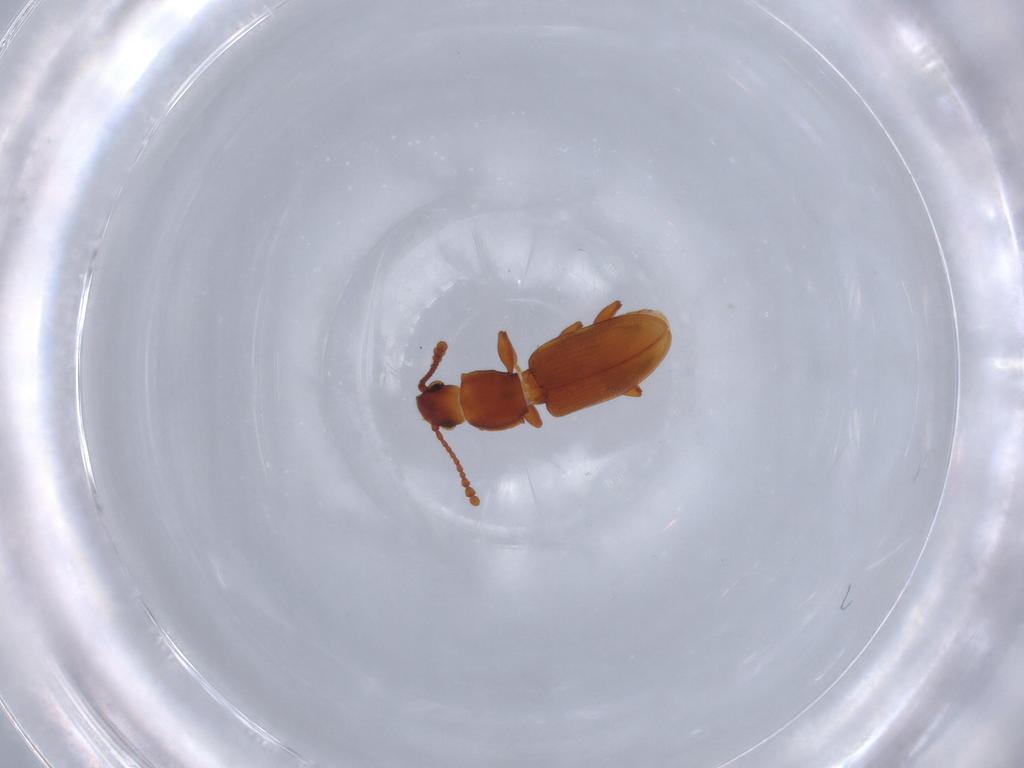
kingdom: Animalia
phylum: Arthropoda
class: Insecta
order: Coleoptera
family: Silvanidae
